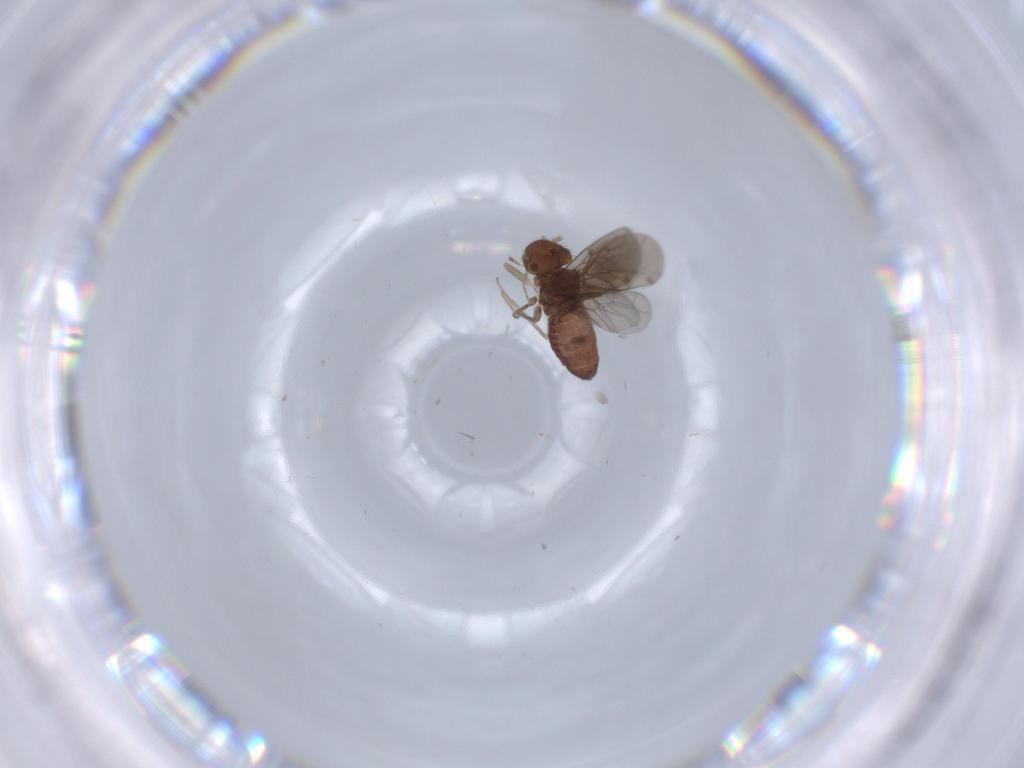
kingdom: Animalia
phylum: Arthropoda
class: Insecta
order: Psocodea
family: Ectopsocidae
